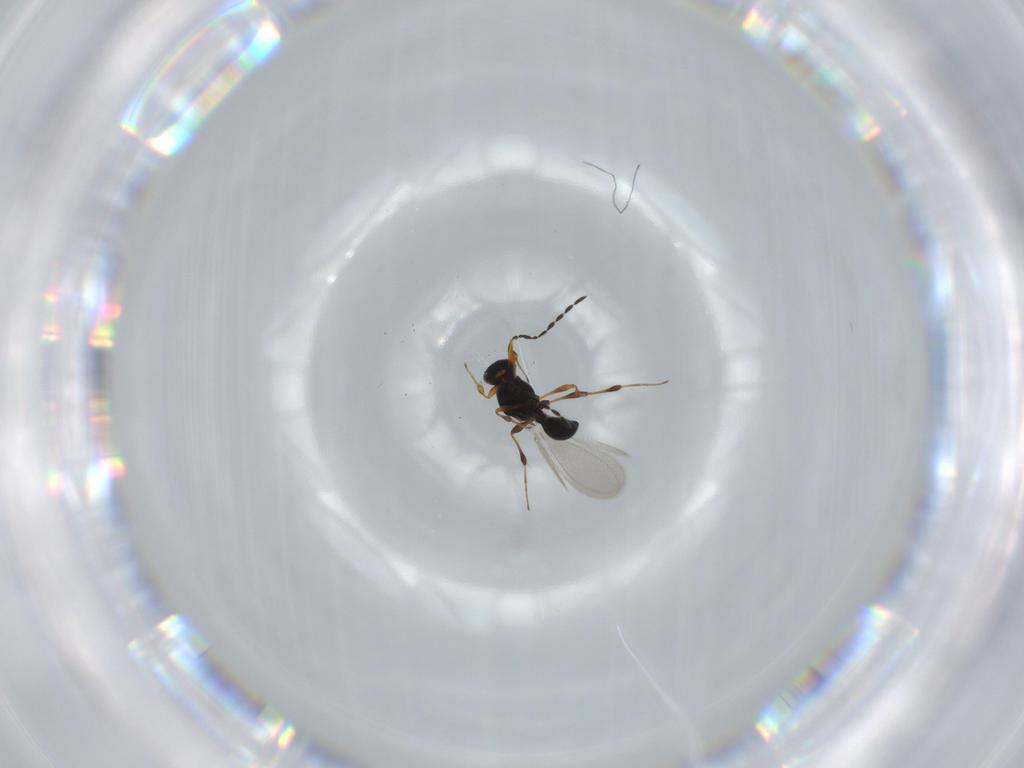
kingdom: Animalia
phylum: Arthropoda
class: Insecta
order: Hymenoptera
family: Platygastridae
